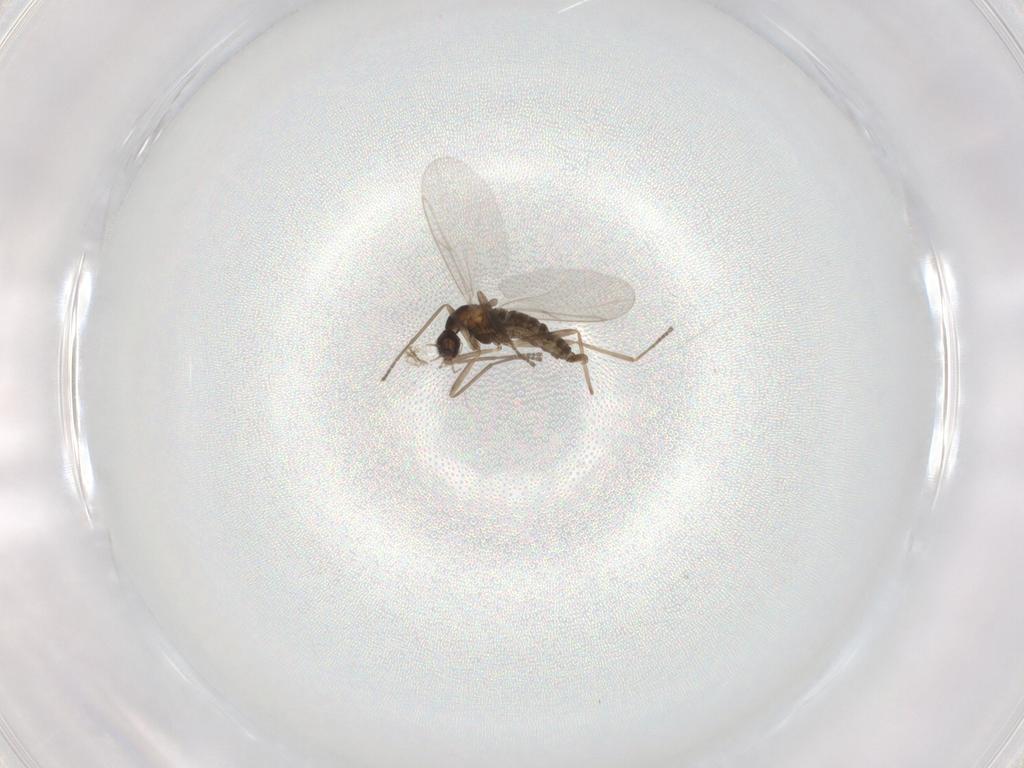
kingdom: Animalia
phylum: Arthropoda
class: Insecta
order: Diptera
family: Cecidomyiidae
